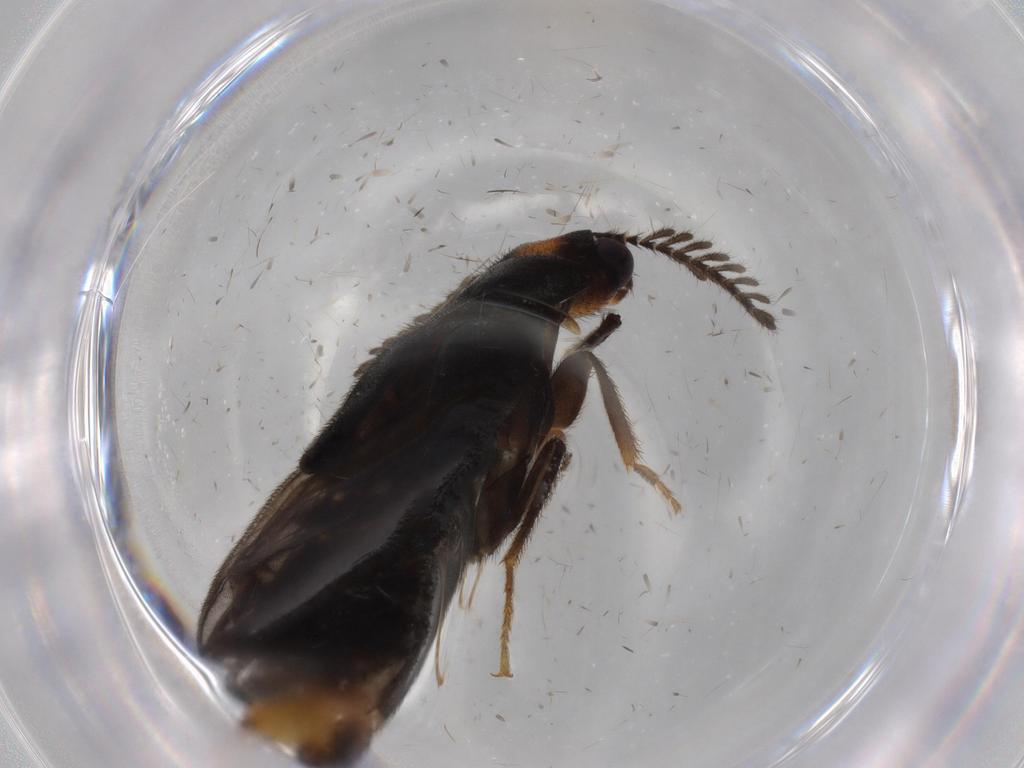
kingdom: Animalia
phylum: Arthropoda
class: Insecta
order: Coleoptera
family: Phengodidae
